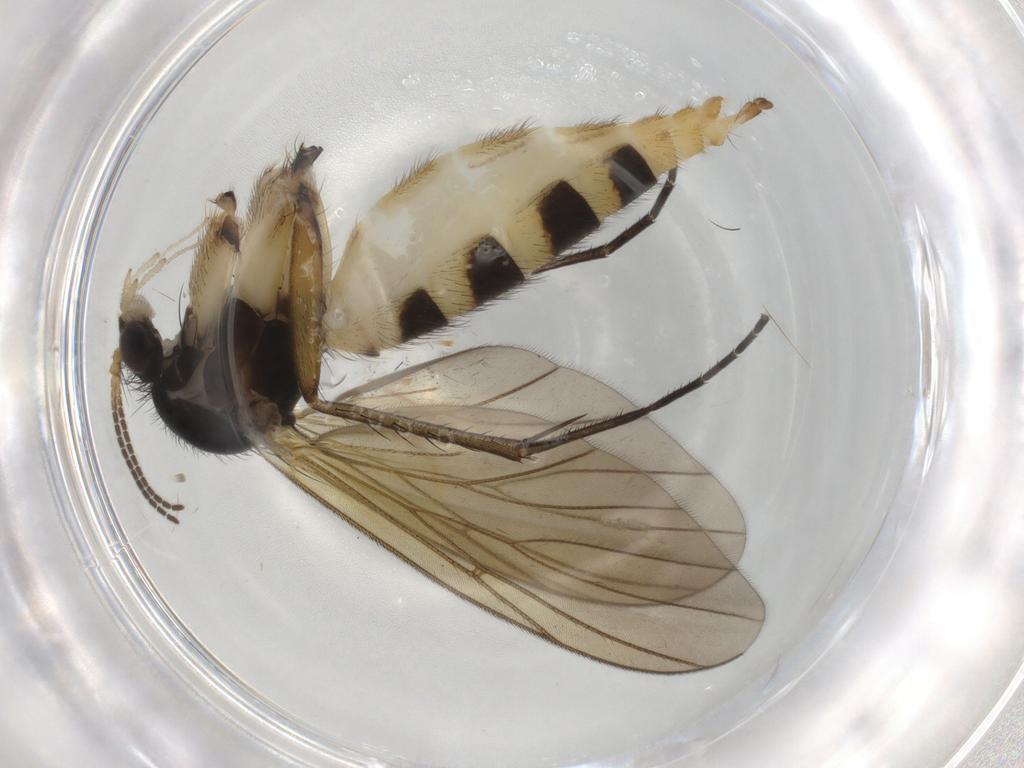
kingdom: Animalia
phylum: Arthropoda
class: Insecta
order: Diptera
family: Mycetophilidae
